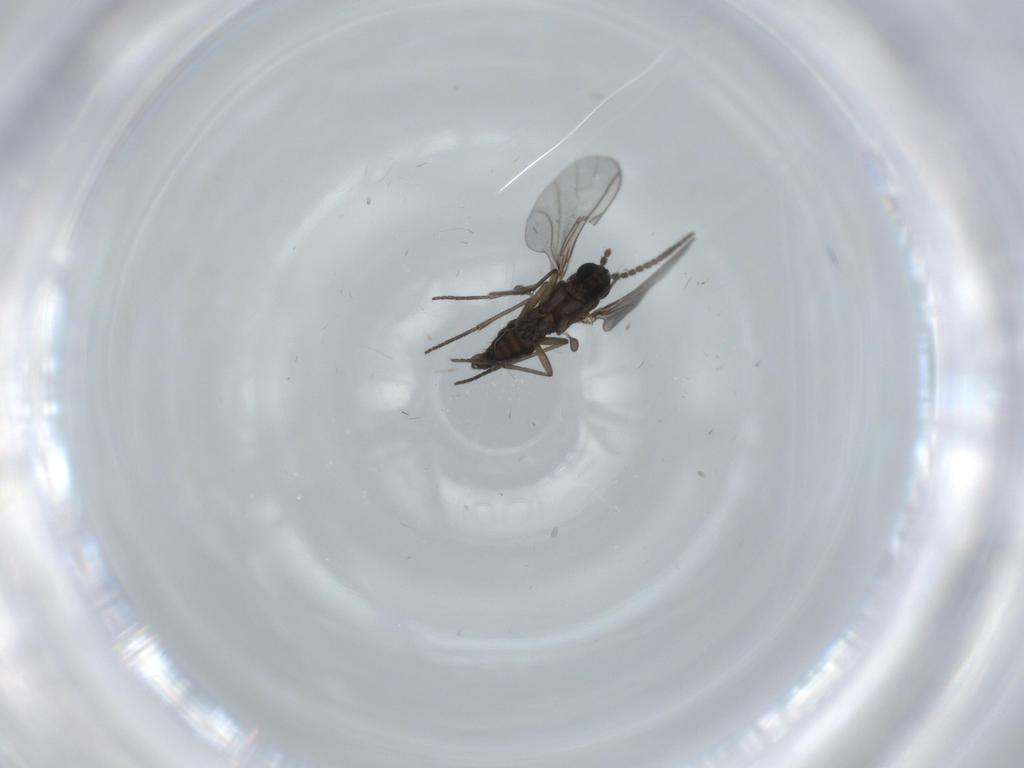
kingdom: Animalia
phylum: Arthropoda
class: Insecta
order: Diptera
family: Cecidomyiidae
